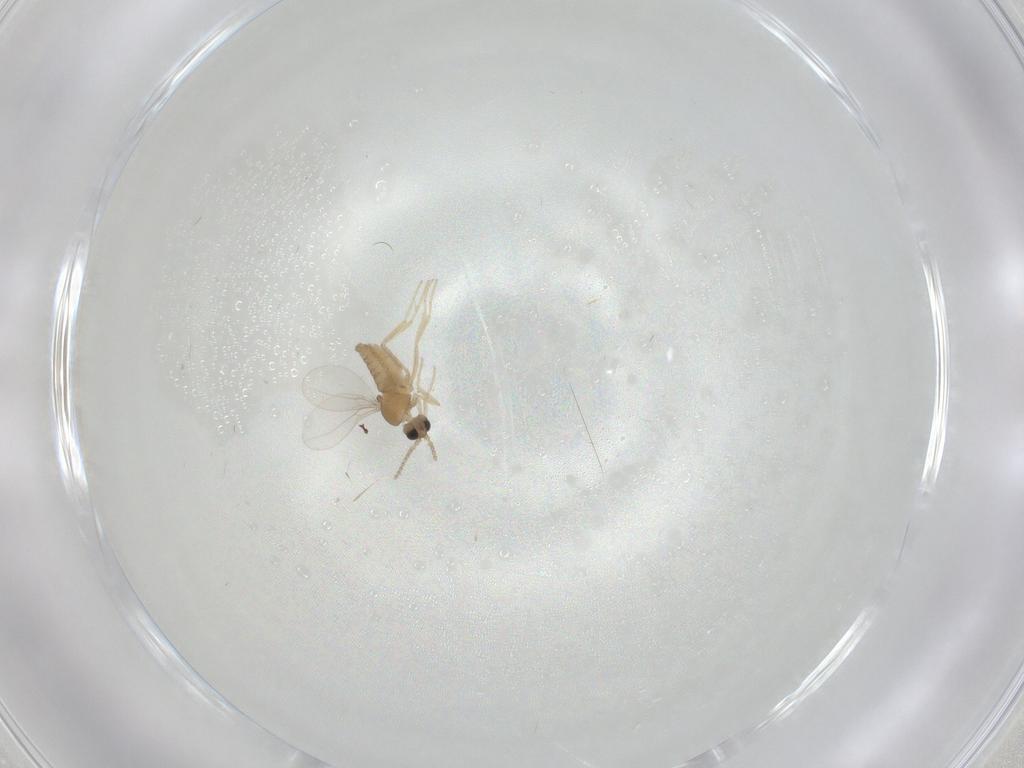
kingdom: Animalia
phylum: Arthropoda
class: Insecta
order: Diptera
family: Cecidomyiidae
